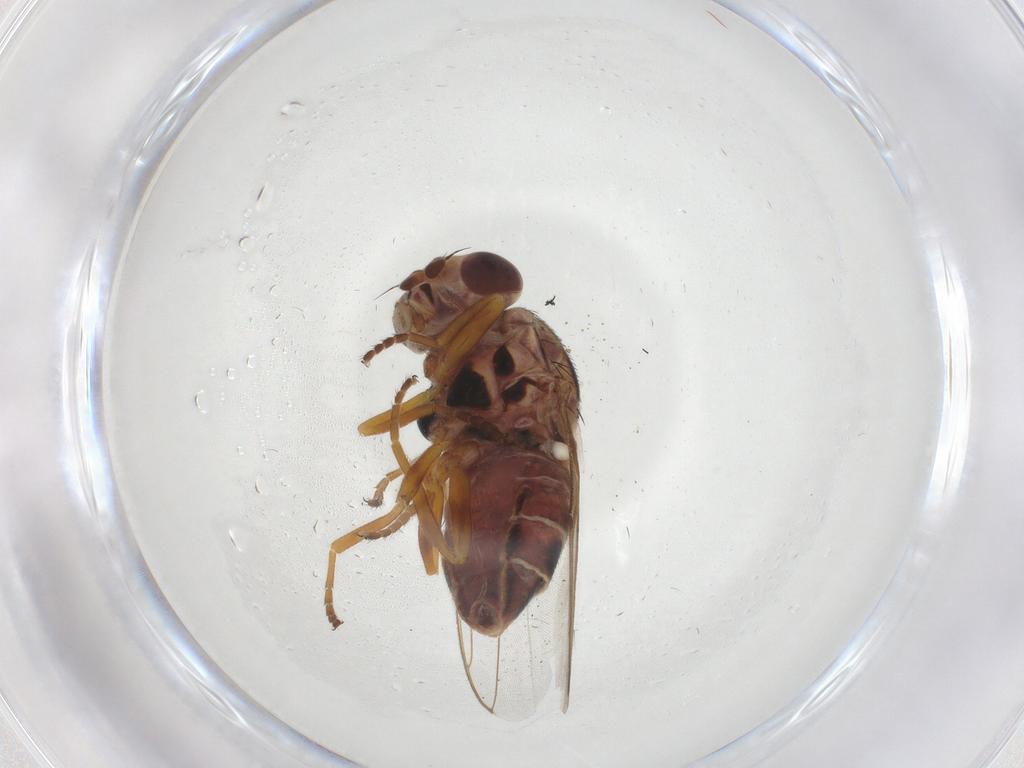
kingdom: Animalia
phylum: Arthropoda
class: Insecta
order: Diptera
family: Chloropidae
